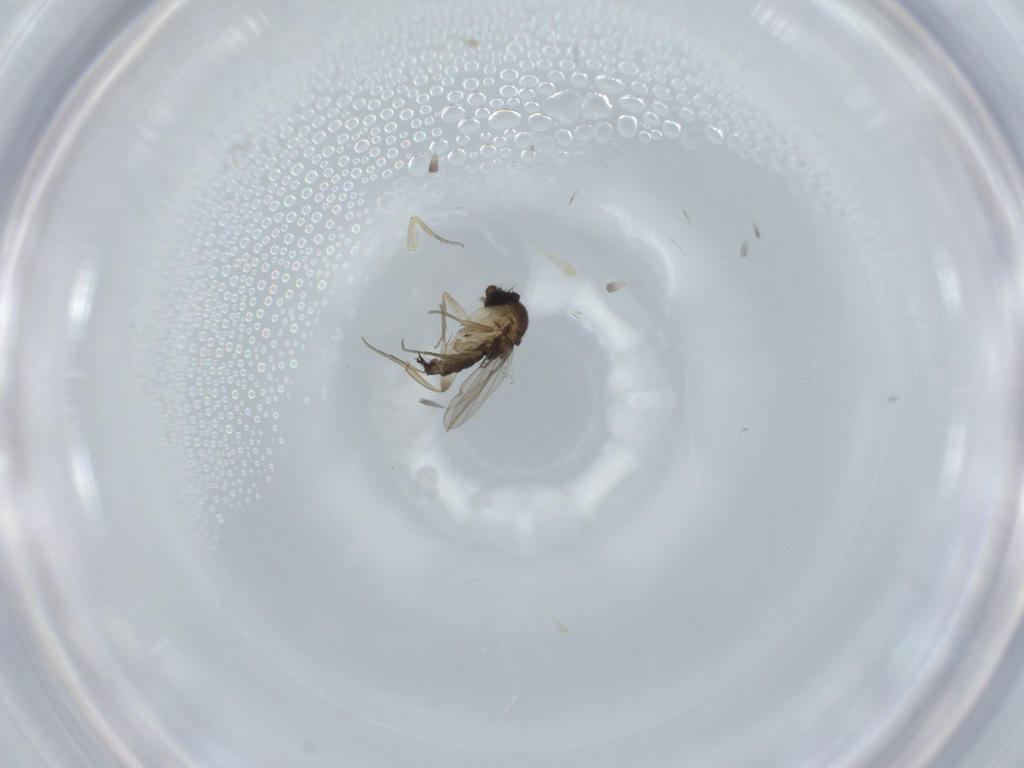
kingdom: Animalia
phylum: Arthropoda
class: Insecta
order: Diptera
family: Phoridae
